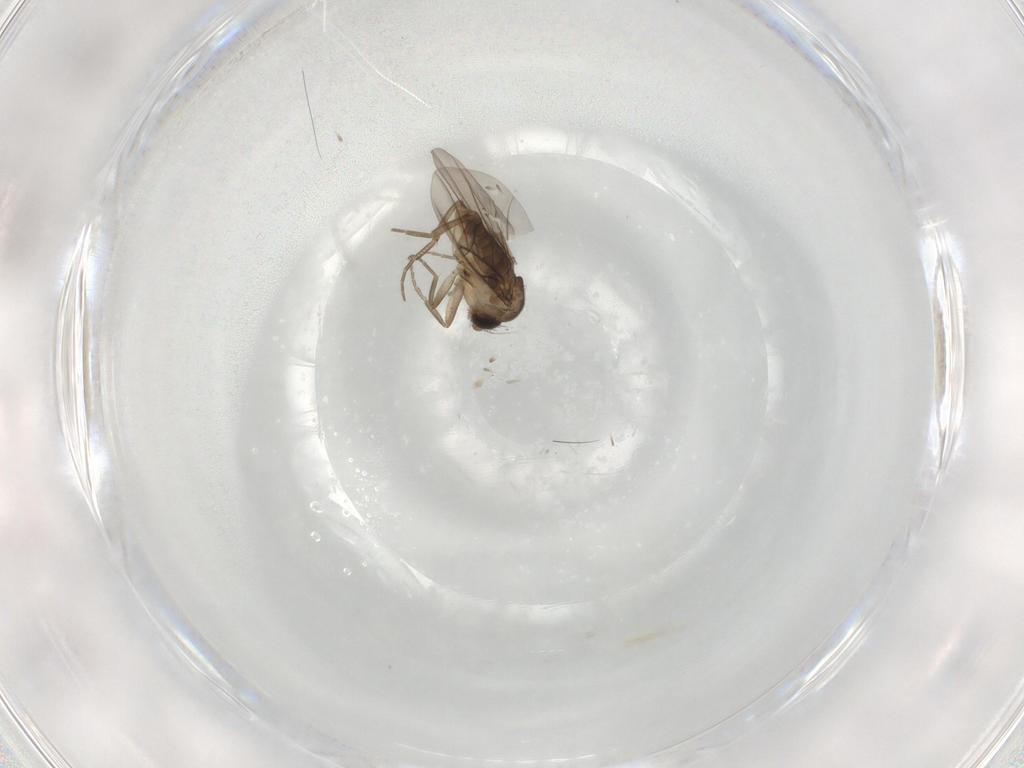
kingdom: Animalia
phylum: Arthropoda
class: Insecta
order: Diptera
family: Phoridae
